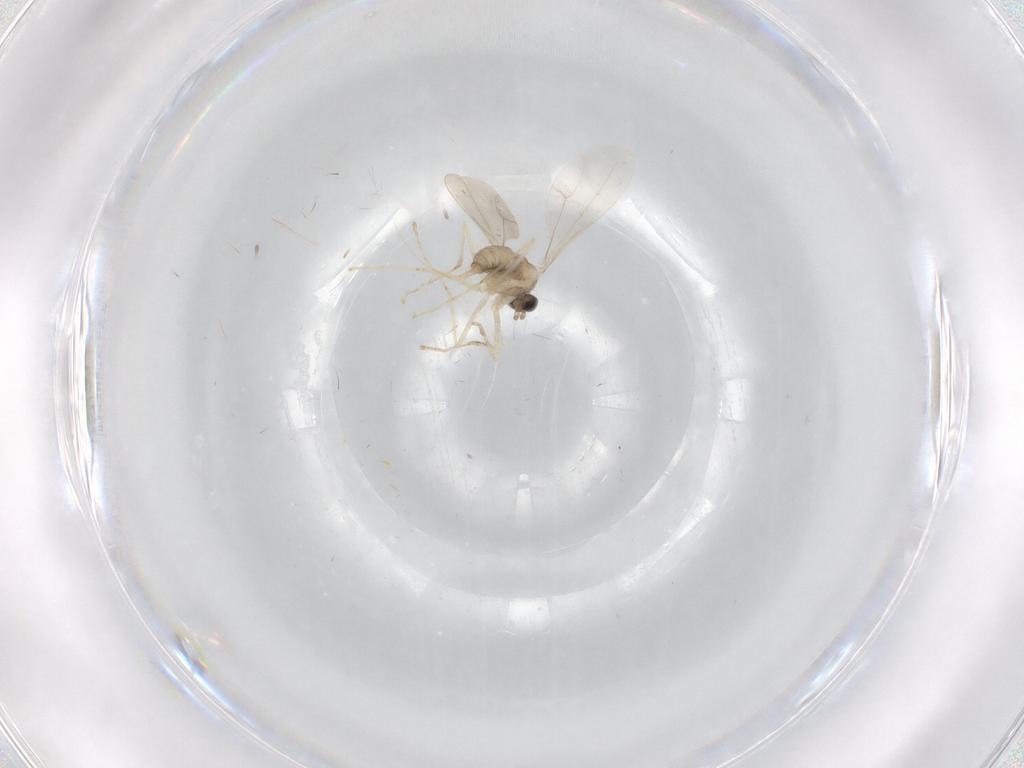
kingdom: Animalia
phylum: Arthropoda
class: Insecta
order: Diptera
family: Cecidomyiidae
